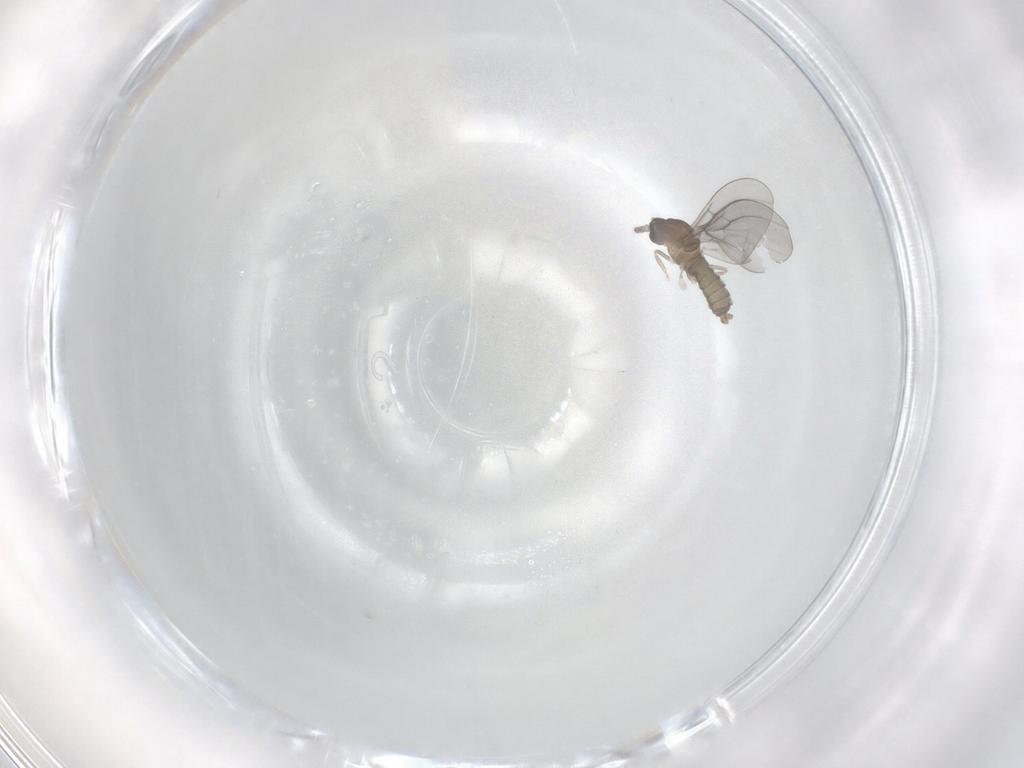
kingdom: Animalia
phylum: Arthropoda
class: Insecta
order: Diptera
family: Cecidomyiidae
